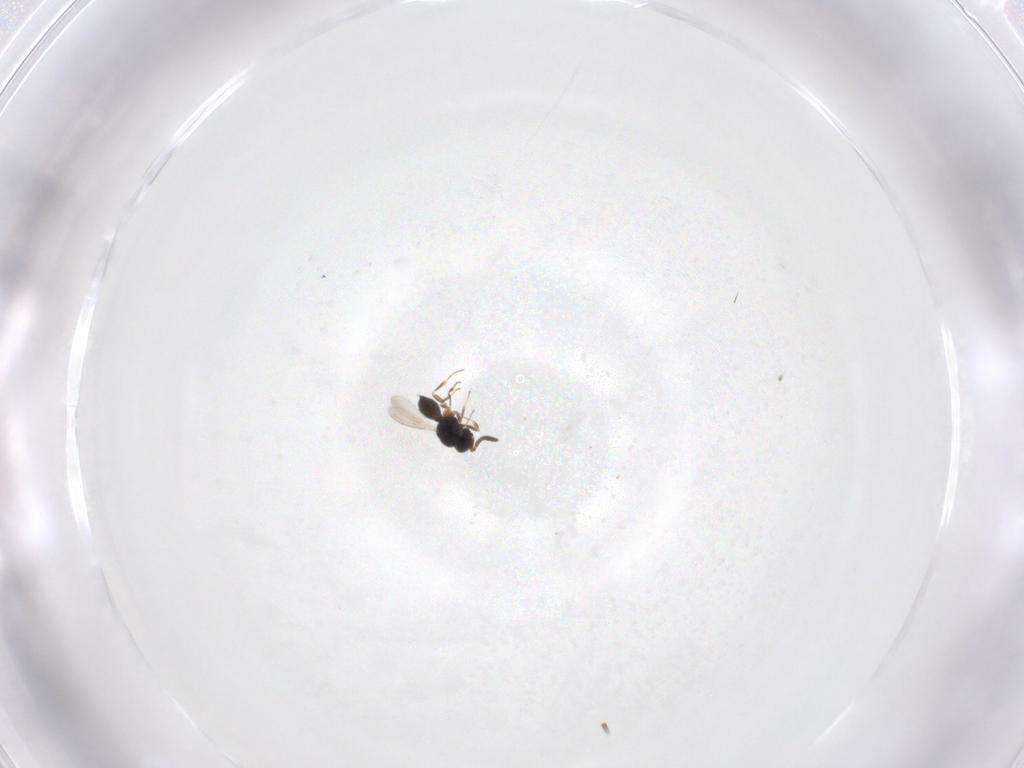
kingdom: Animalia
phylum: Arthropoda
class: Insecta
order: Hymenoptera
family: Scelionidae
